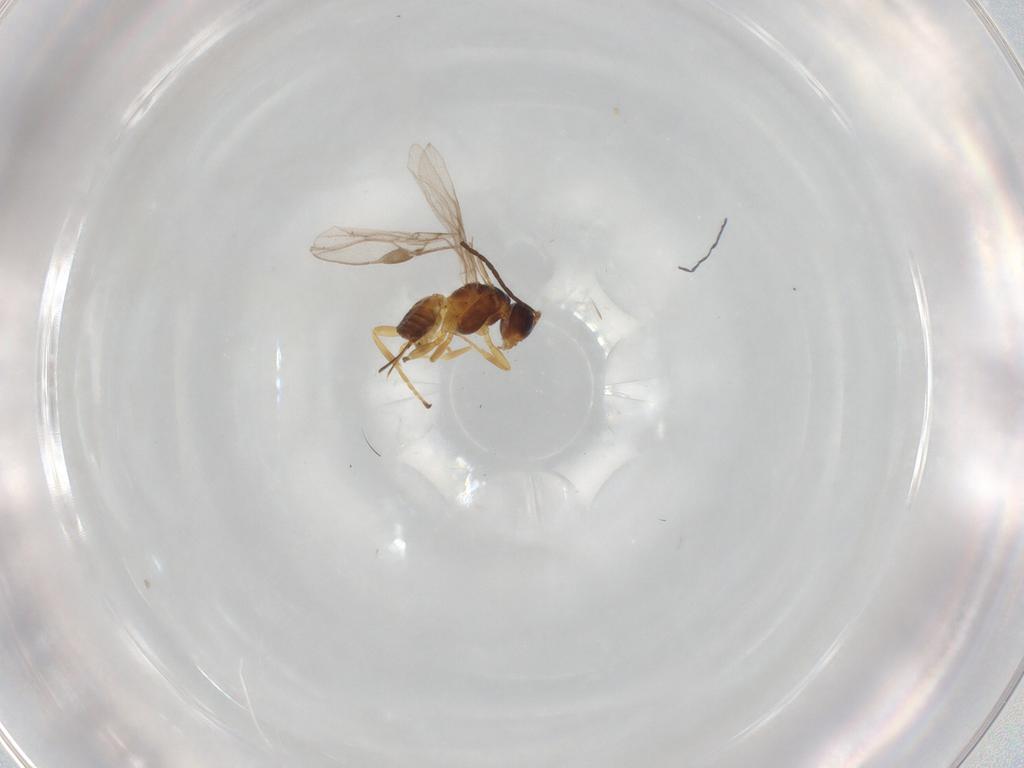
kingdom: Animalia
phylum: Arthropoda
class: Insecta
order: Hymenoptera
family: Braconidae
